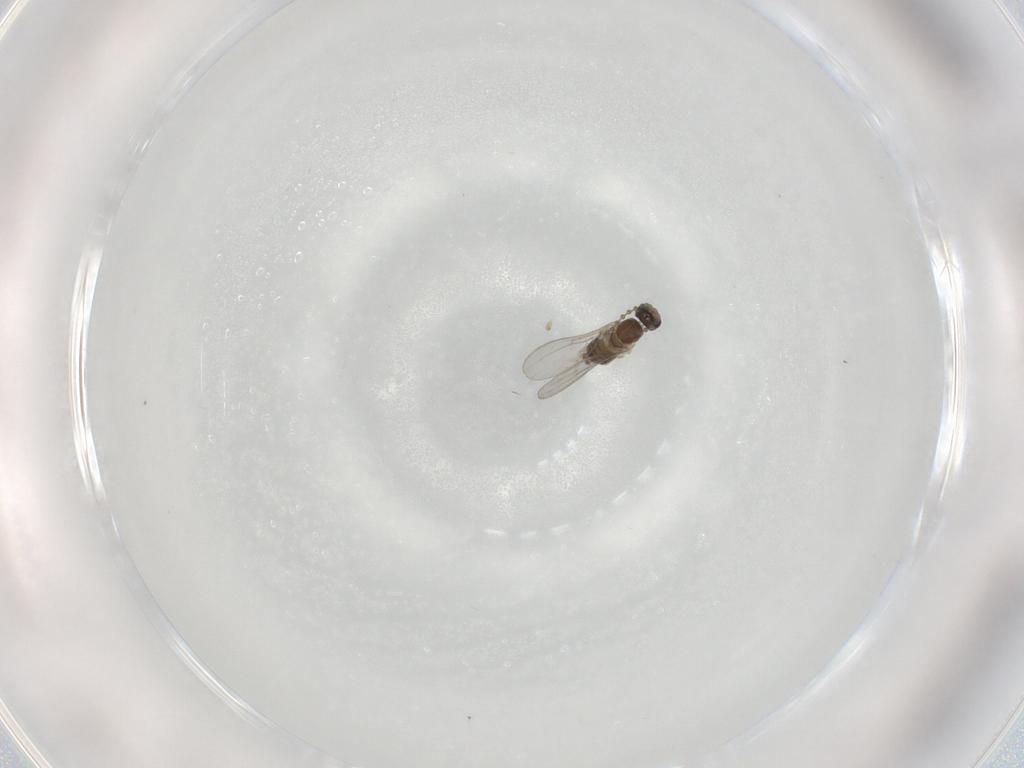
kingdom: Animalia
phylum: Arthropoda
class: Insecta
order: Diptera
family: Cecidomyiidae
